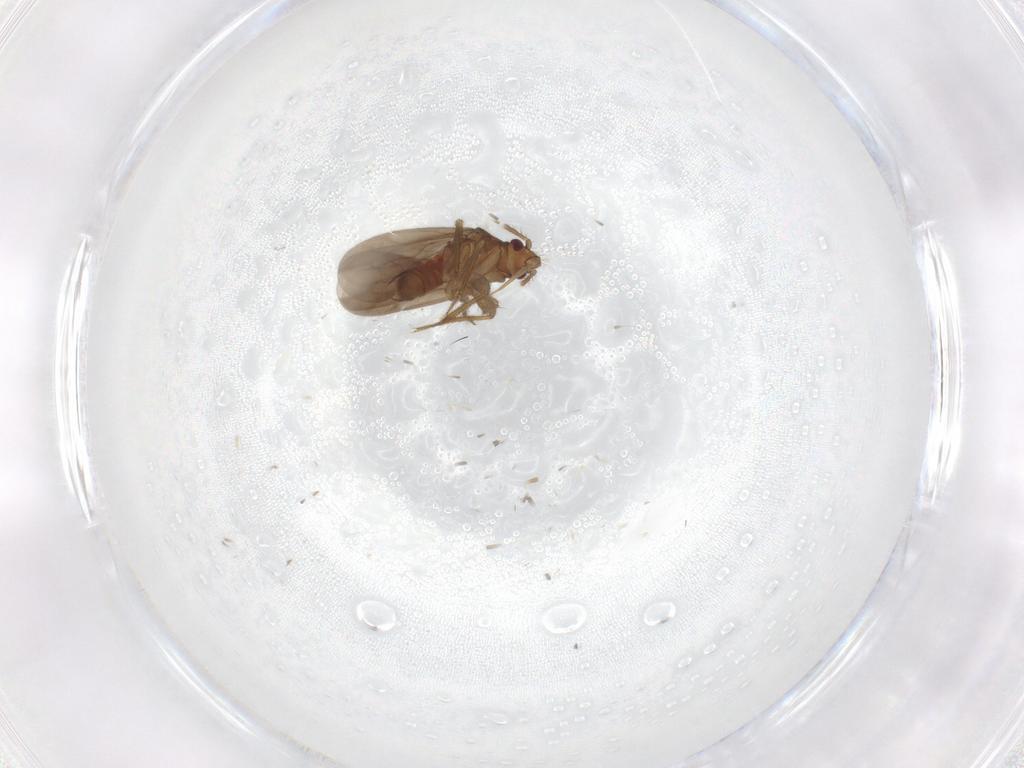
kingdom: Animalia
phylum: Arthropoda
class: Insecta
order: Hemiptera
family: Ceratocombidae
